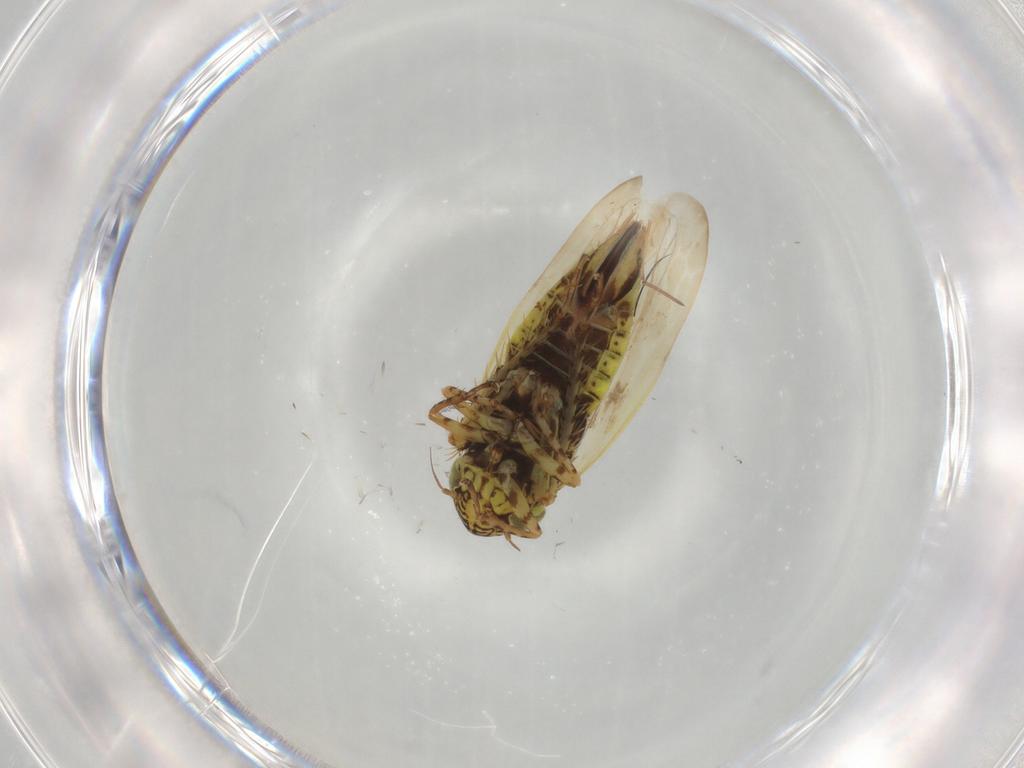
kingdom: Animalia
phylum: Arthropoda
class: Insecta
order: Hemiptera
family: Cicadellidae
